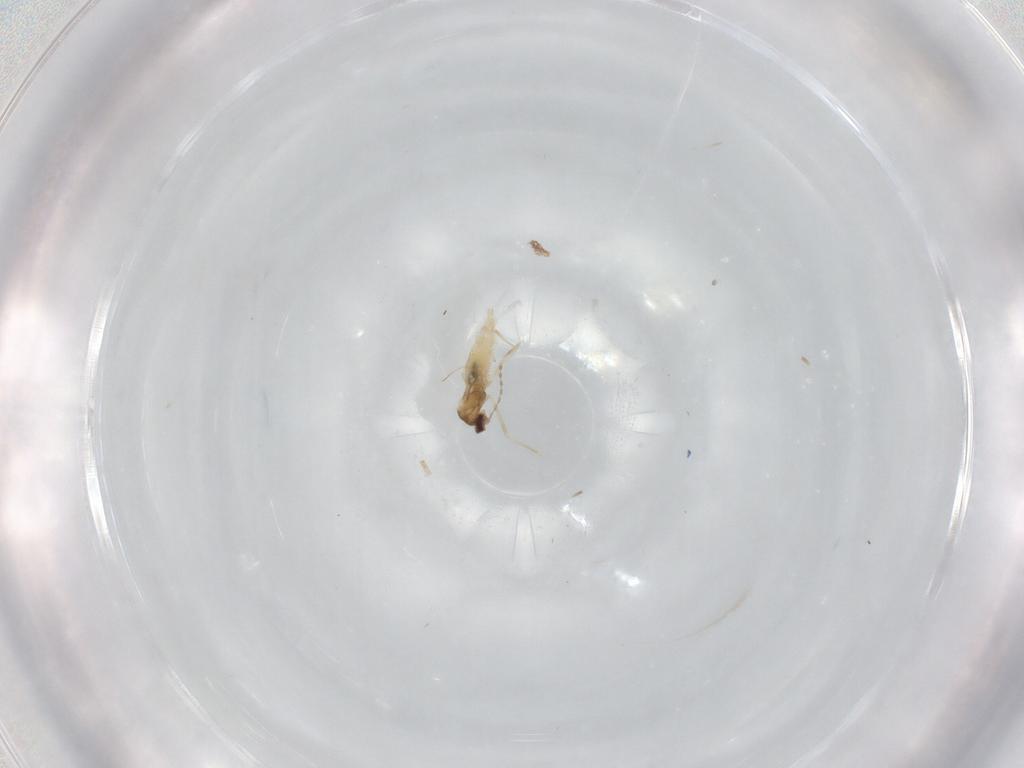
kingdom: Animalia
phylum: Arthropoda
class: Insecta
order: Diptera
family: Cecidomyiidae
